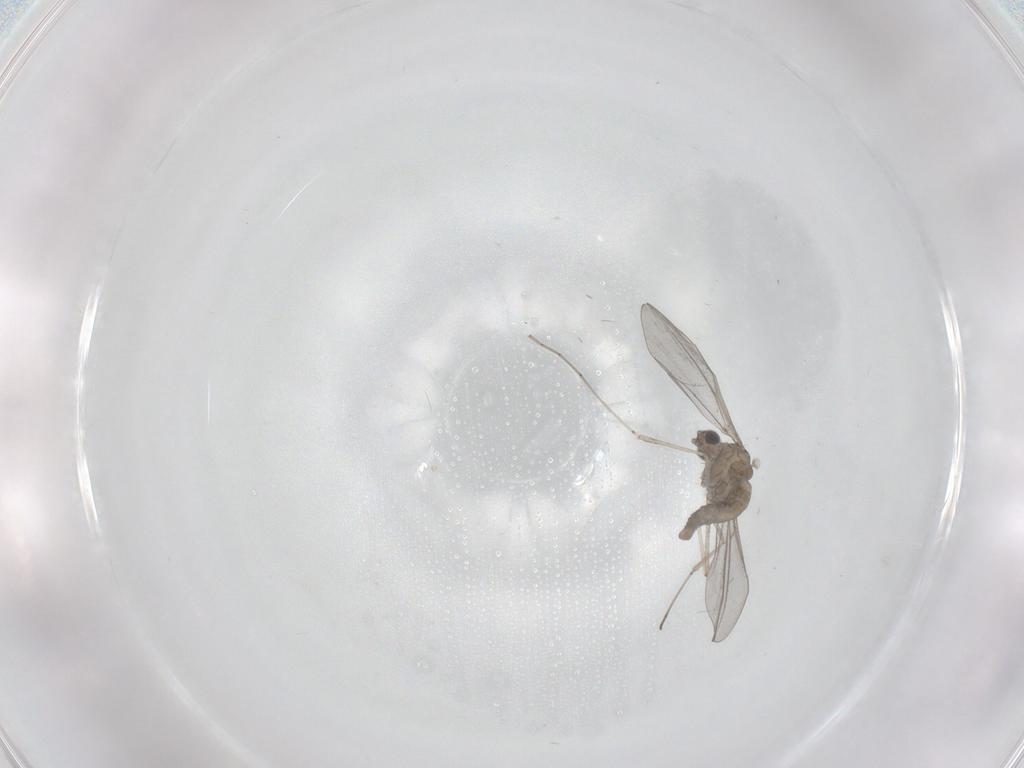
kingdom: Animalia
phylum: Arthropoda
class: Insecta
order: Diptera
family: Cecidomyiidae
